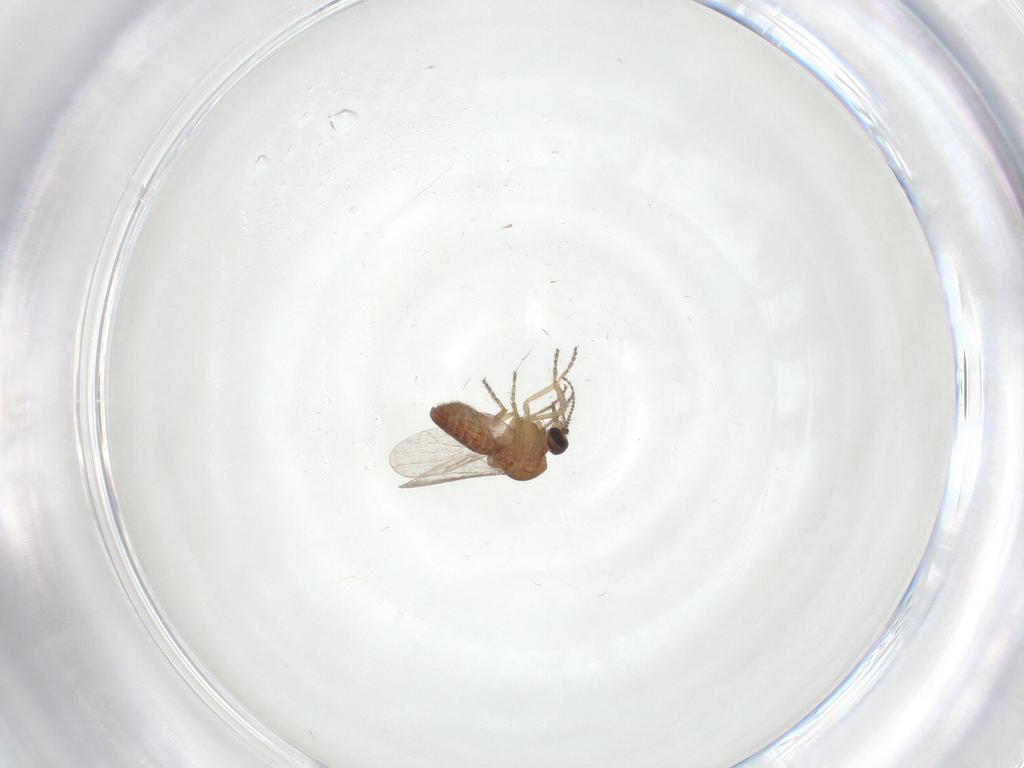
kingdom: Animalia
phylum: Arthropoda
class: Insecta
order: Diptera
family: Ceratopogonidae
